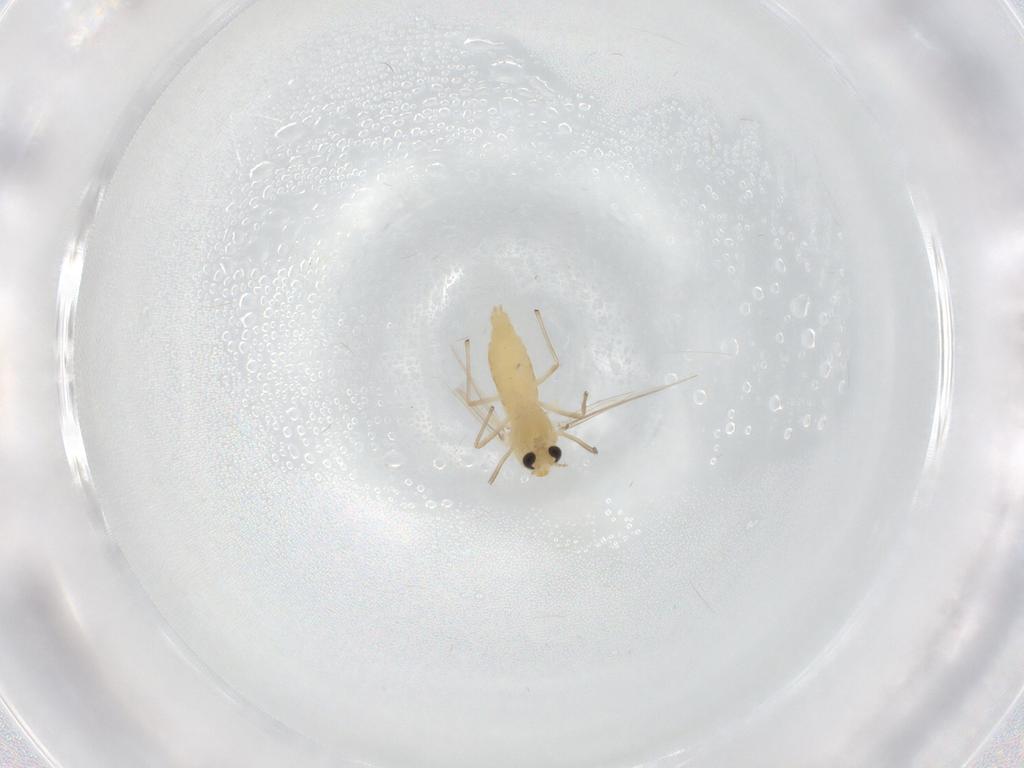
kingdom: Animalia
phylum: Arthropoda
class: Insecta
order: Diptera
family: Chironomidae
